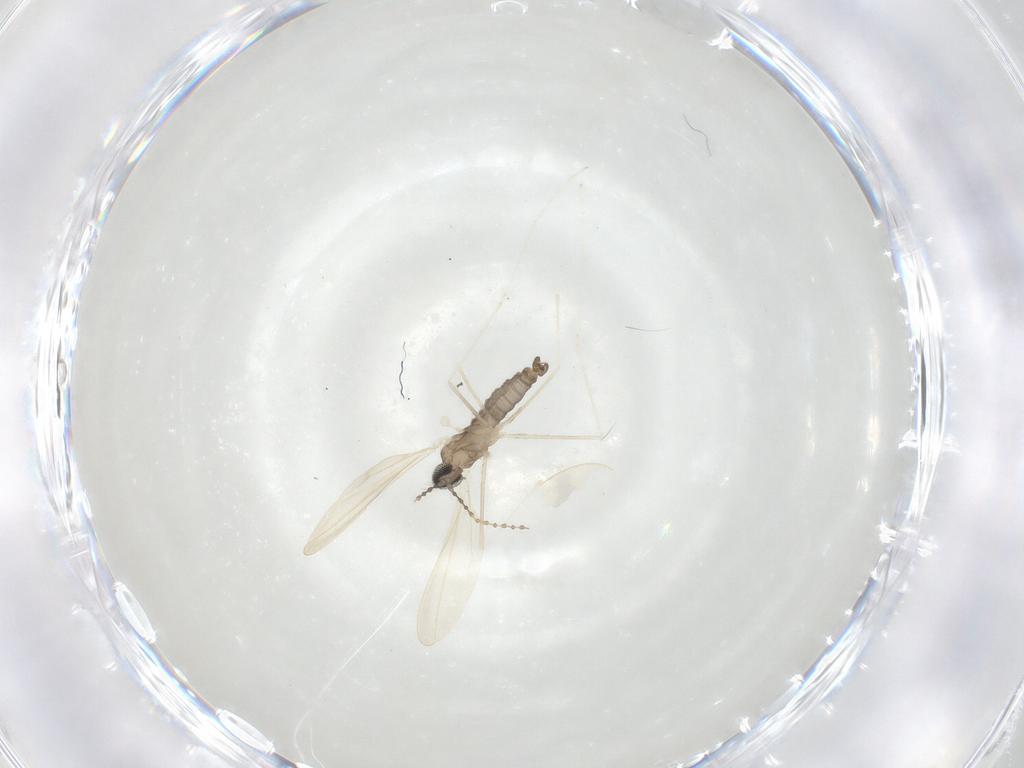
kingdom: Animalia
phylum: Arthropoda
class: Insecta
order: Diptera
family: Cecidomyiidae
